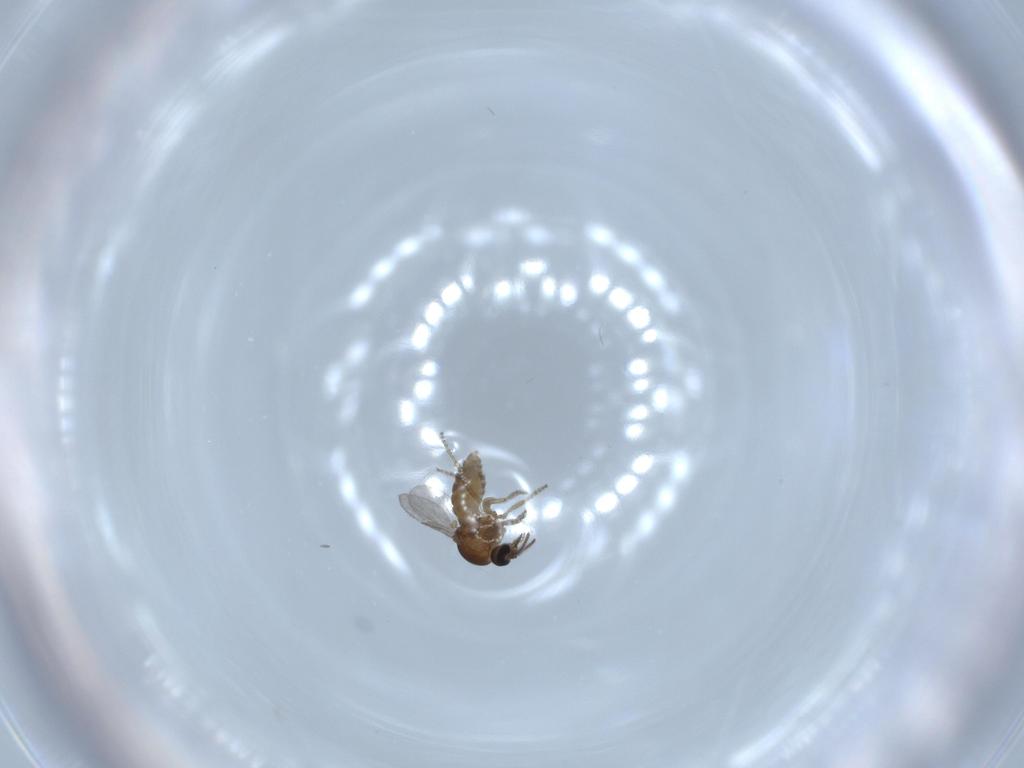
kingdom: Animalia
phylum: Arthropoda
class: Insecta
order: Diptera
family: Ceratopogonidae
